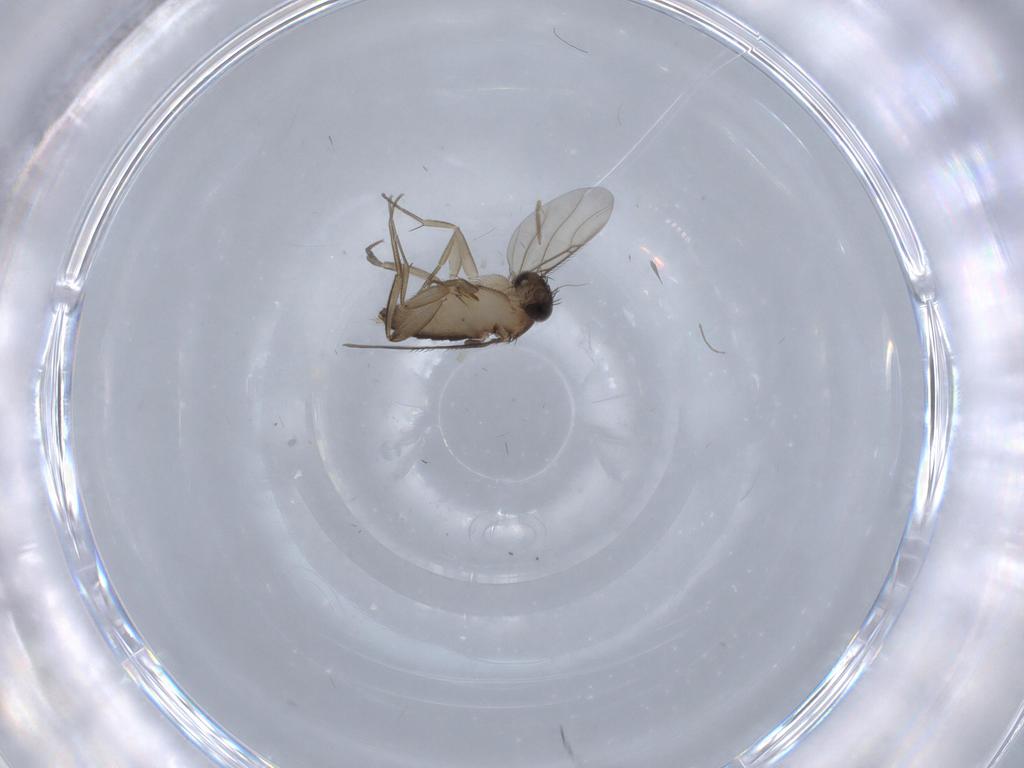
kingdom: Animalia
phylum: Arthropoda
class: Insecta
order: Diptera
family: Phoridae
